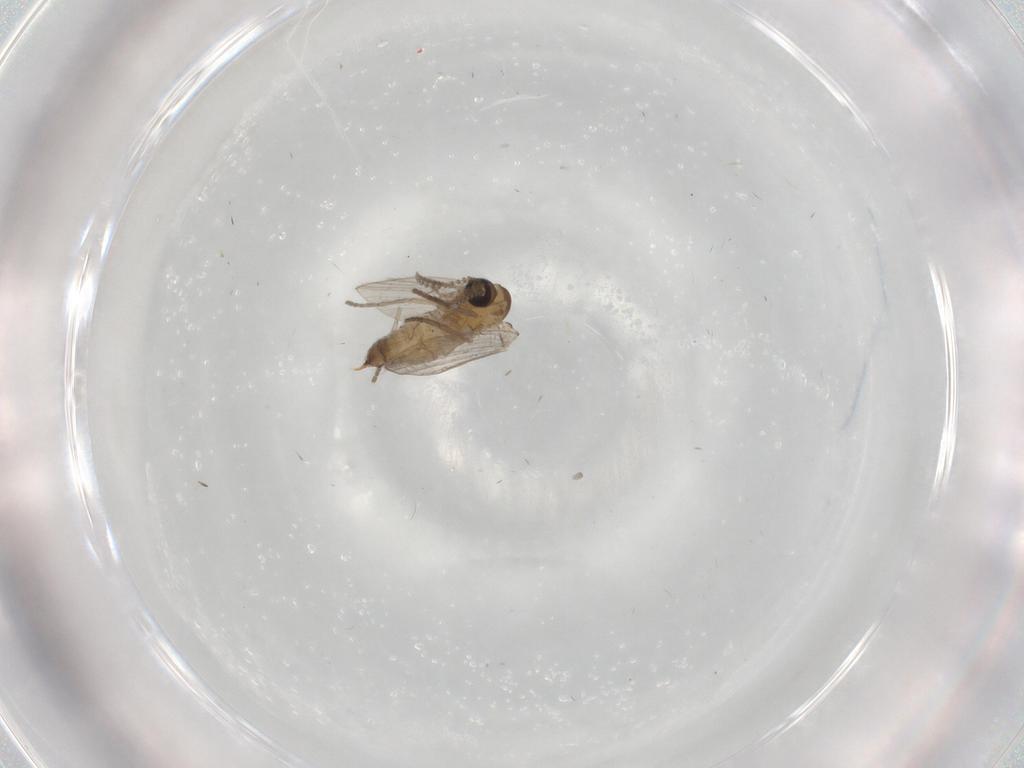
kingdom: Animalia
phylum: Arthropoda
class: Insecta
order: Diptera
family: Psychodidae
